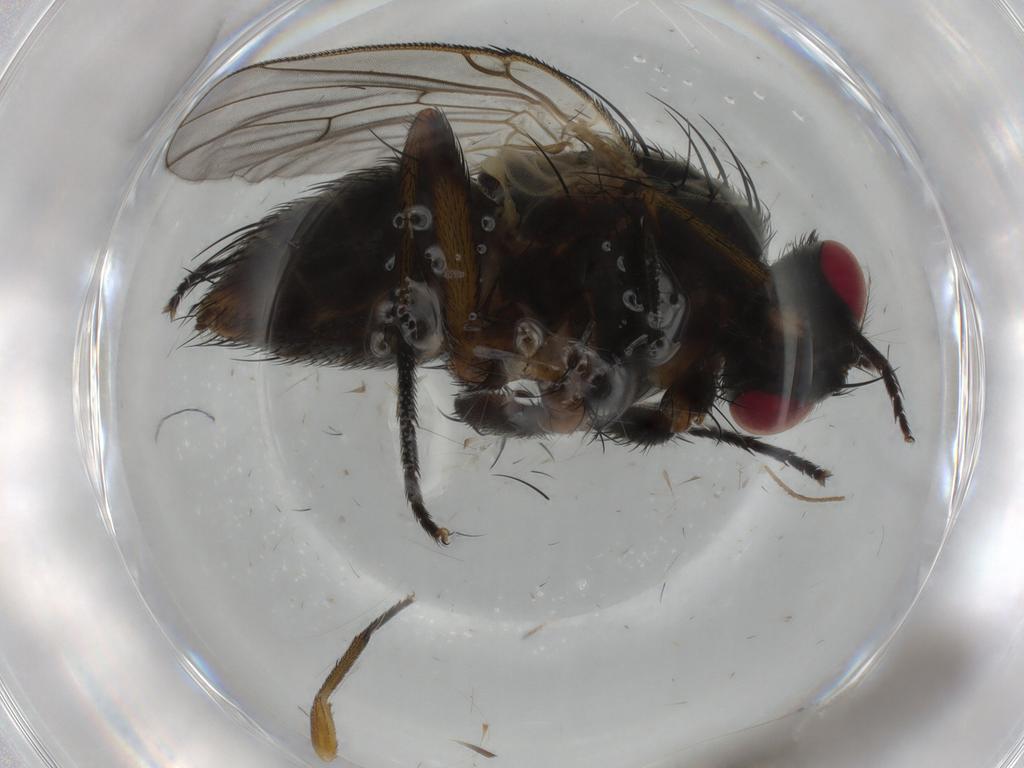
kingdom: Animalia
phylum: Arthropoda
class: Insecta
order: Diptera
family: Muscidae
